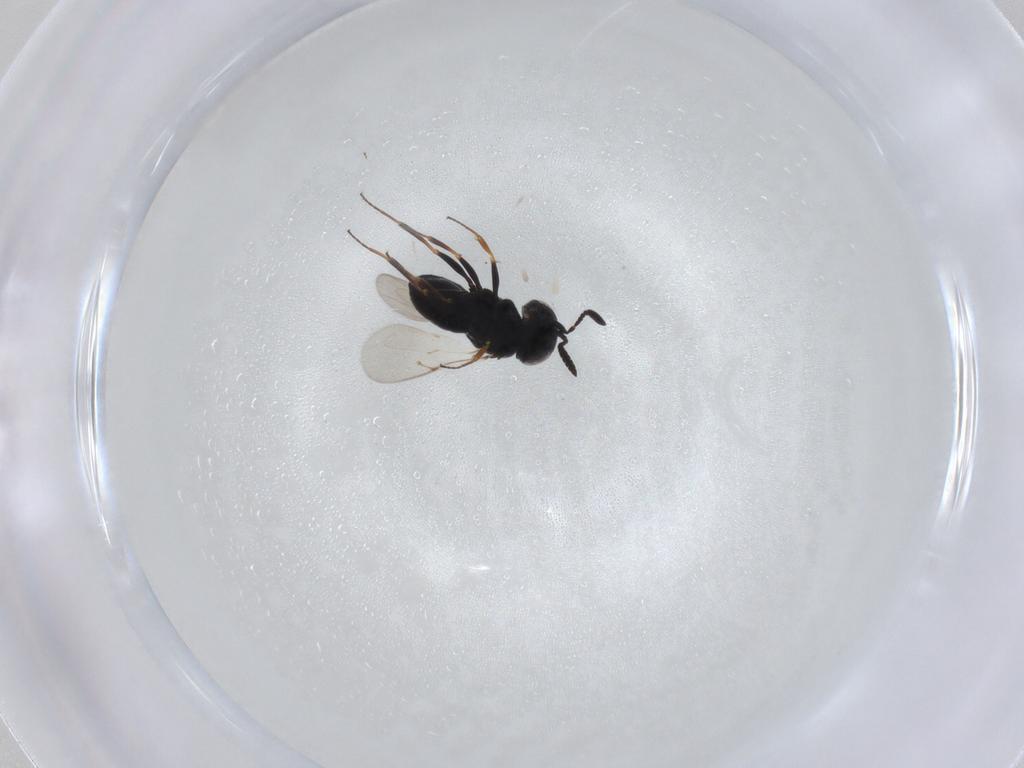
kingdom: Animalia
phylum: Arthropoda
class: Insecta
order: Hymenoptera
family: Scelionidae
